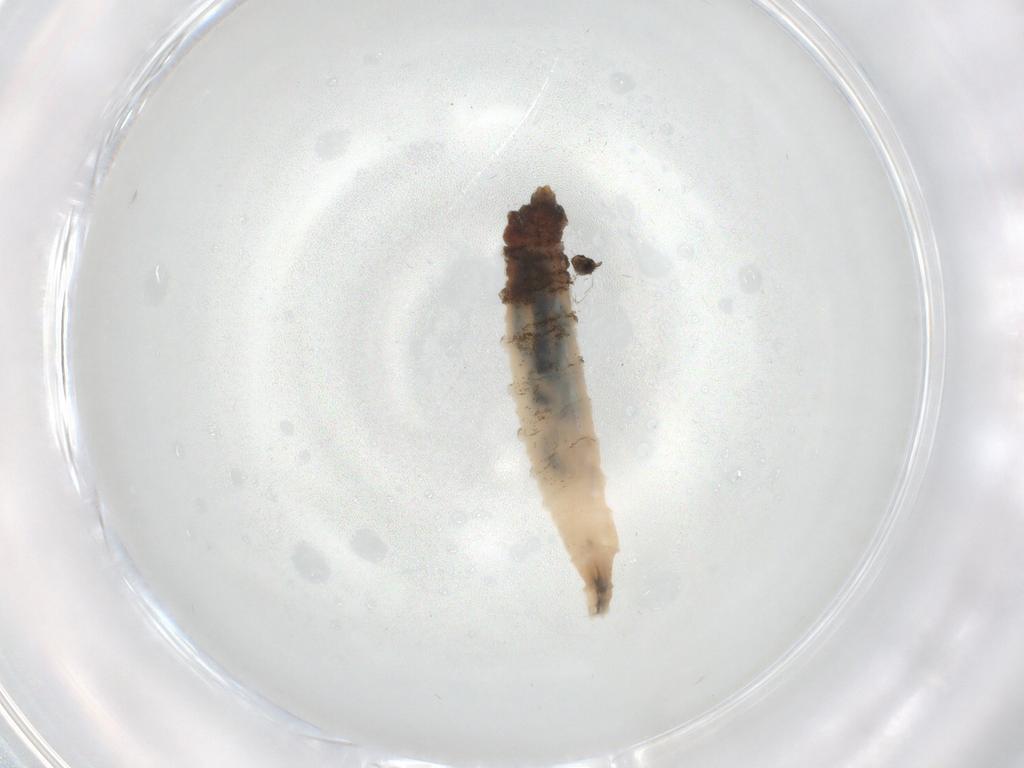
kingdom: Animalia
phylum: Arthropoda
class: Insecta
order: Diptera
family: Cecidomyiidae
